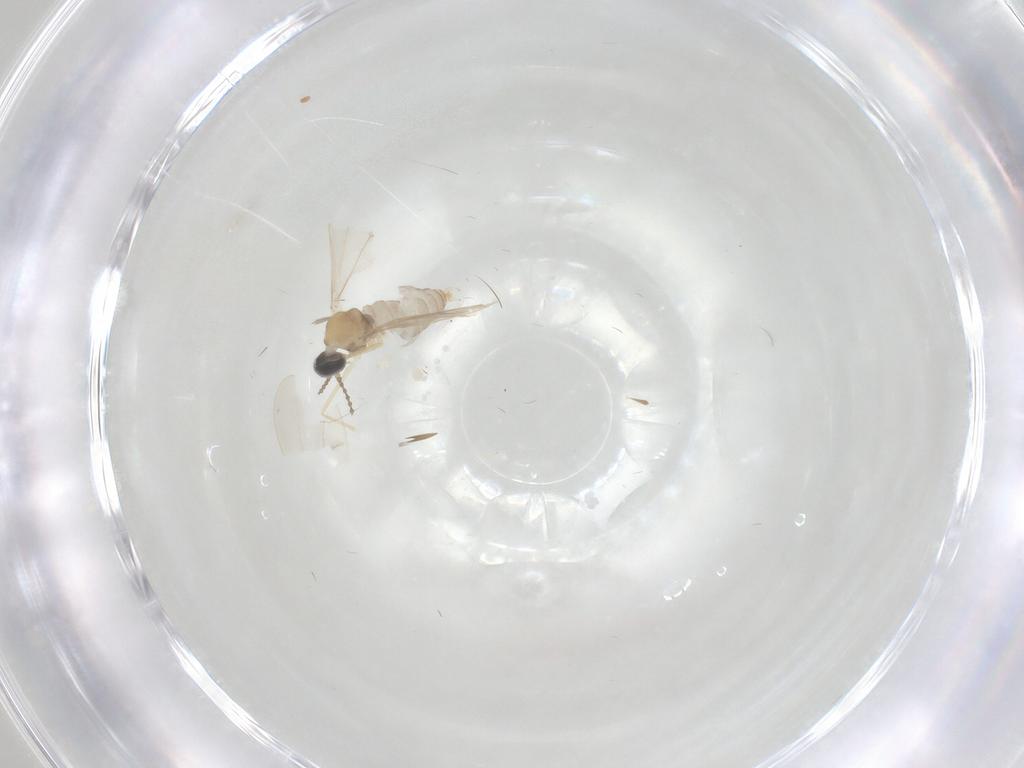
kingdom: Animalia
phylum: Arthropoda
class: Insecta
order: Diptera
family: Cecidomyiidae
